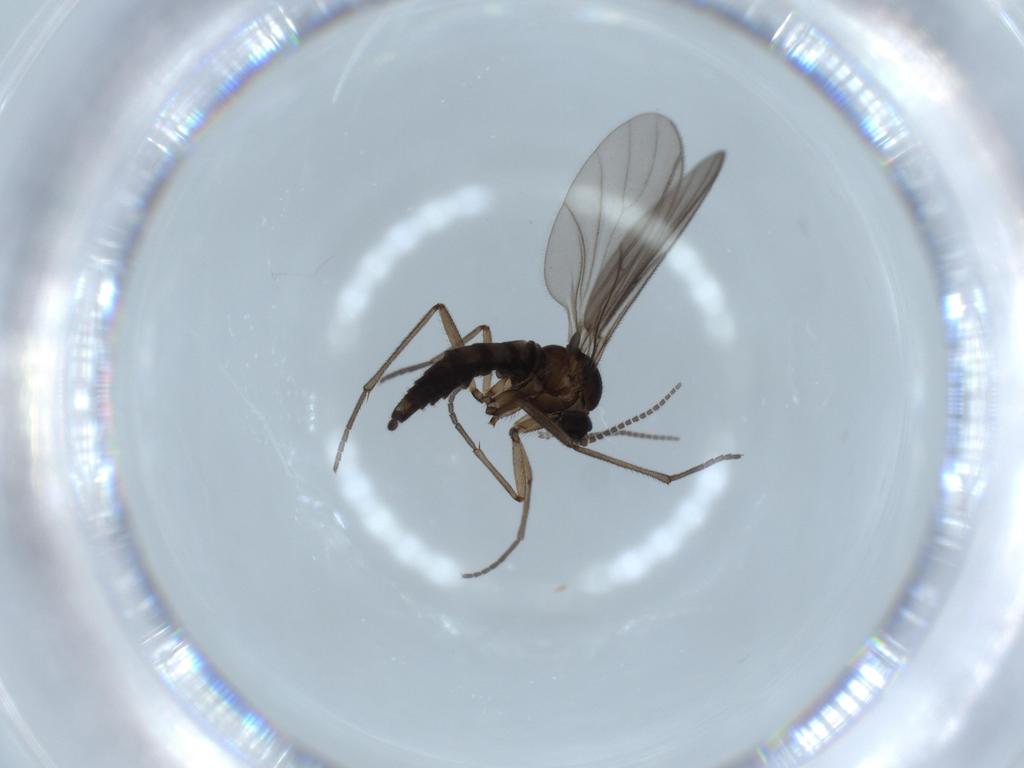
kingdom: Animalia
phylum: Arthropoda
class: Insecta
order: Diptera
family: Sciaridae
